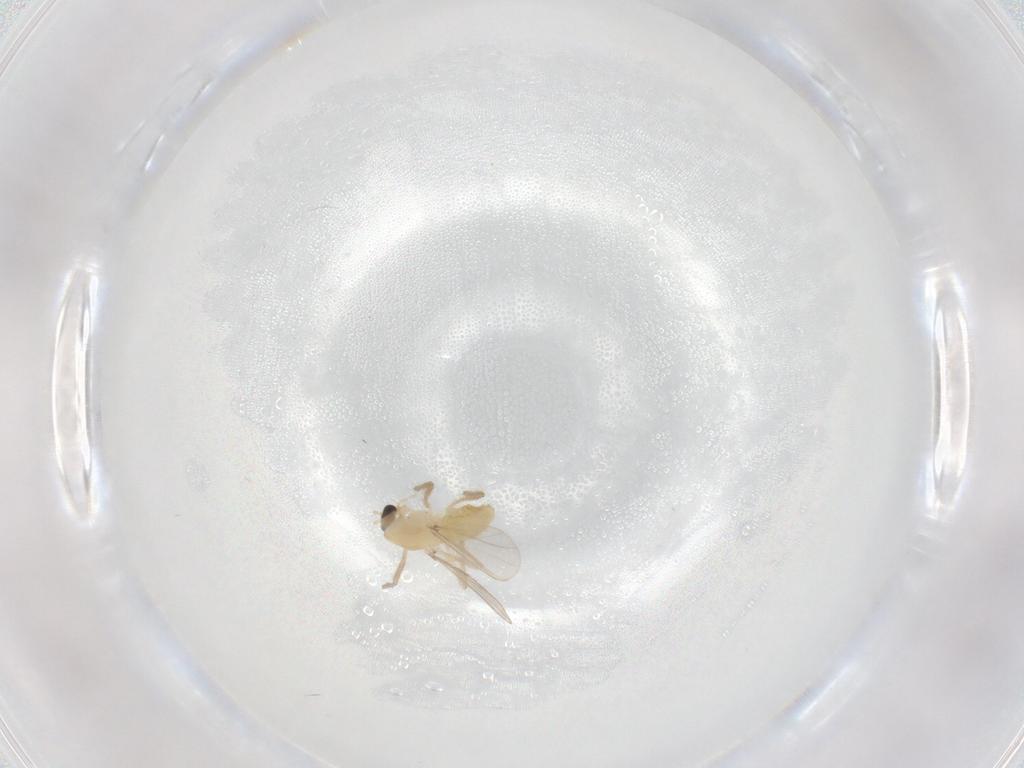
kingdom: Animalia
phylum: Arthropoda
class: Insecta
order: Diptera
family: Chironomidae
